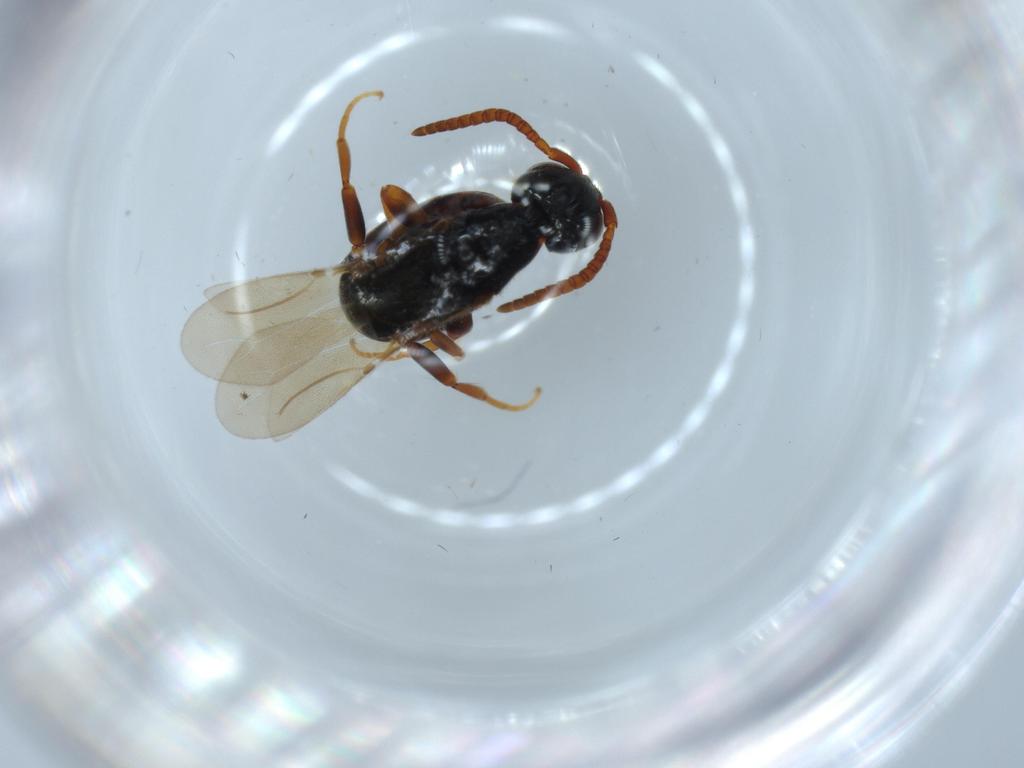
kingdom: Animalia
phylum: Arthropoda
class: Insecta
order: Hymenoptera
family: Bethylidae
